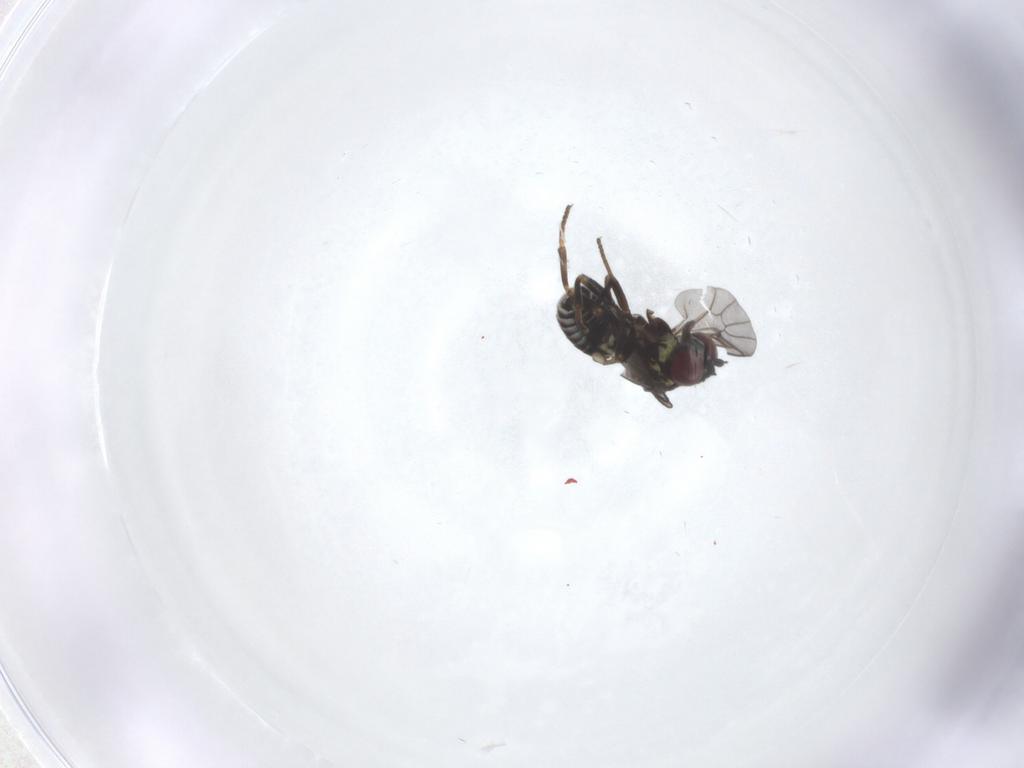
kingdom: Animalia
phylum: Arthropoda
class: Insecta
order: Diptera
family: Bombyliidae
